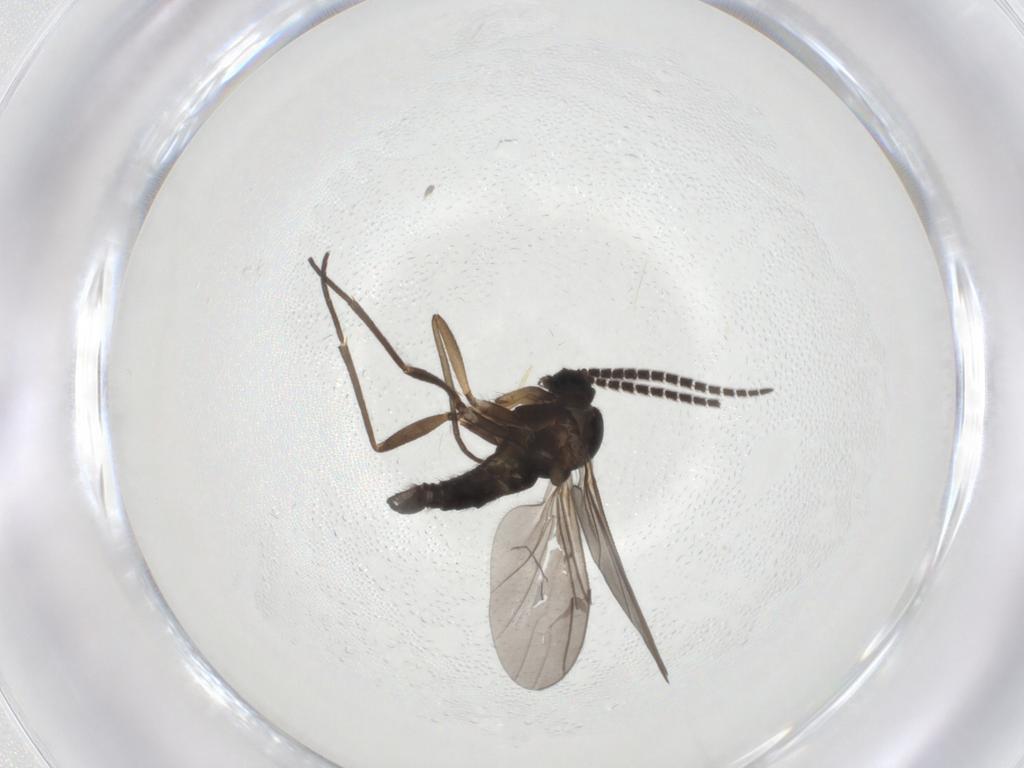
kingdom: Animalia
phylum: Arthropoda
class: Insecta
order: Diptera
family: Sciaridae
